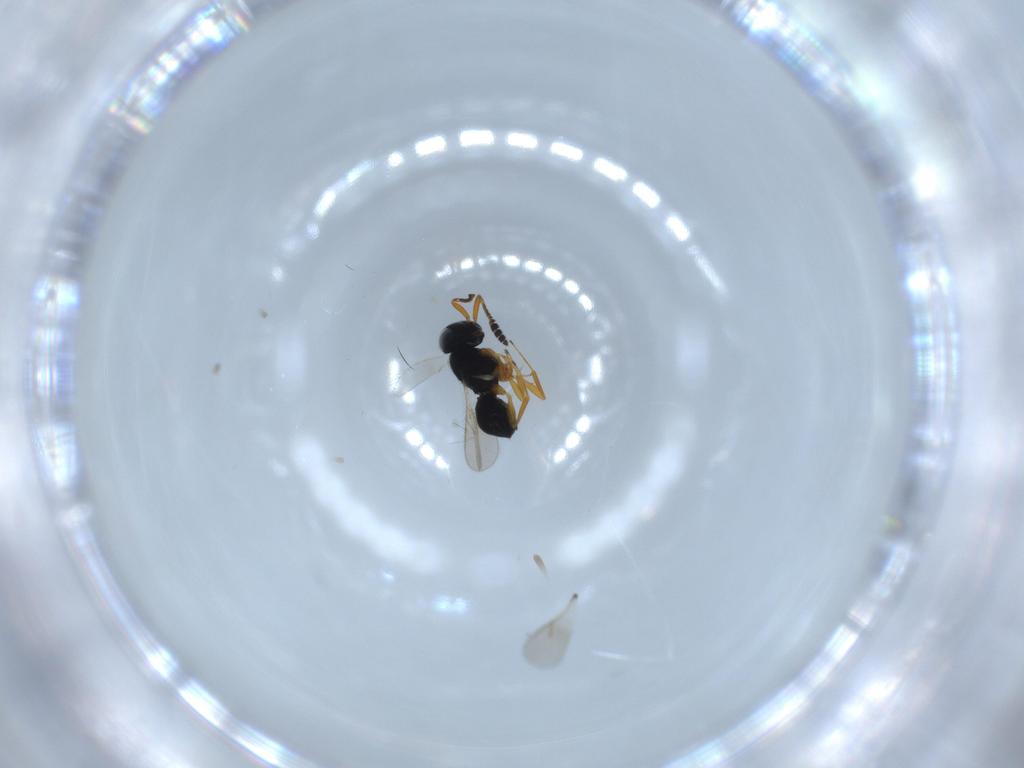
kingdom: Animalia
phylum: Arthropoda
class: Insecta
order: Hymenoptera
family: Scelionidae
